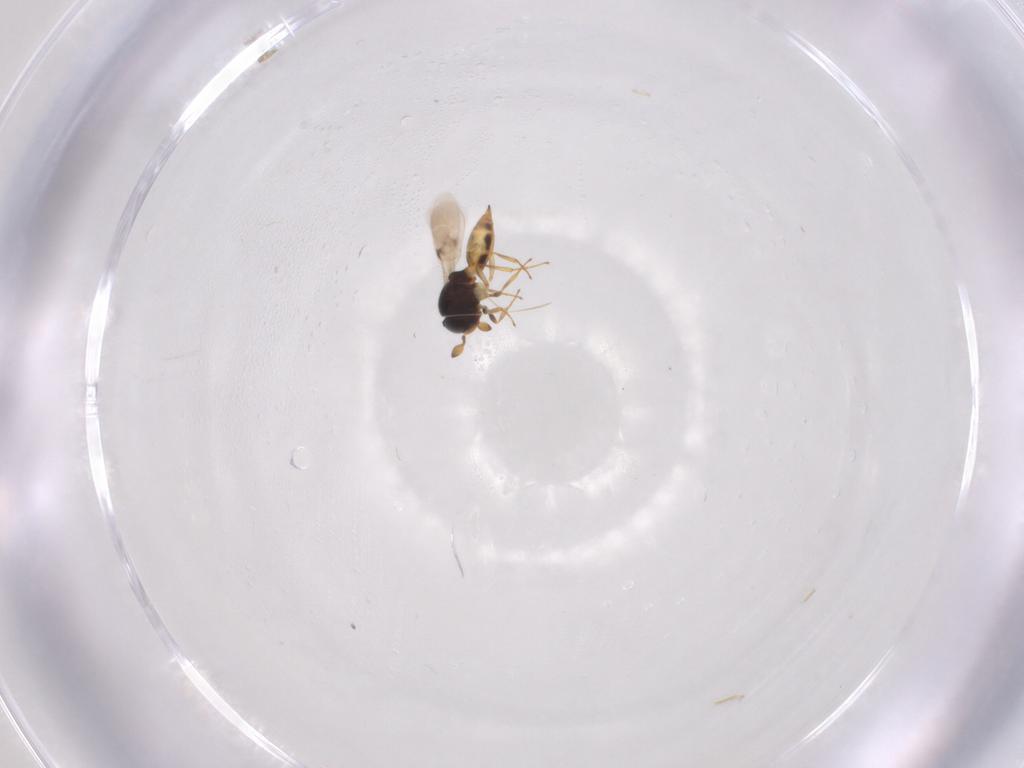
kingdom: Animalia
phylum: Arthropoda
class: Insecta
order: Hymenoptera
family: Scelionidae
